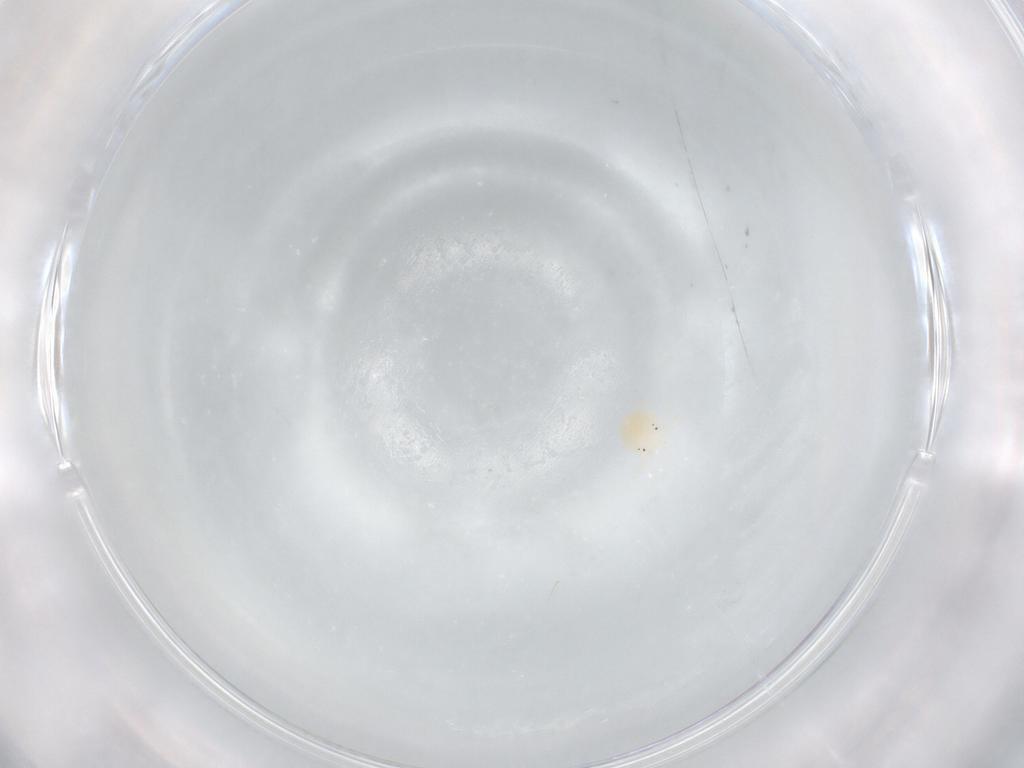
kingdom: Animalia
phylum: Arthropoda
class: Arachnida
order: Trombidiformes
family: Hydryphantidae
